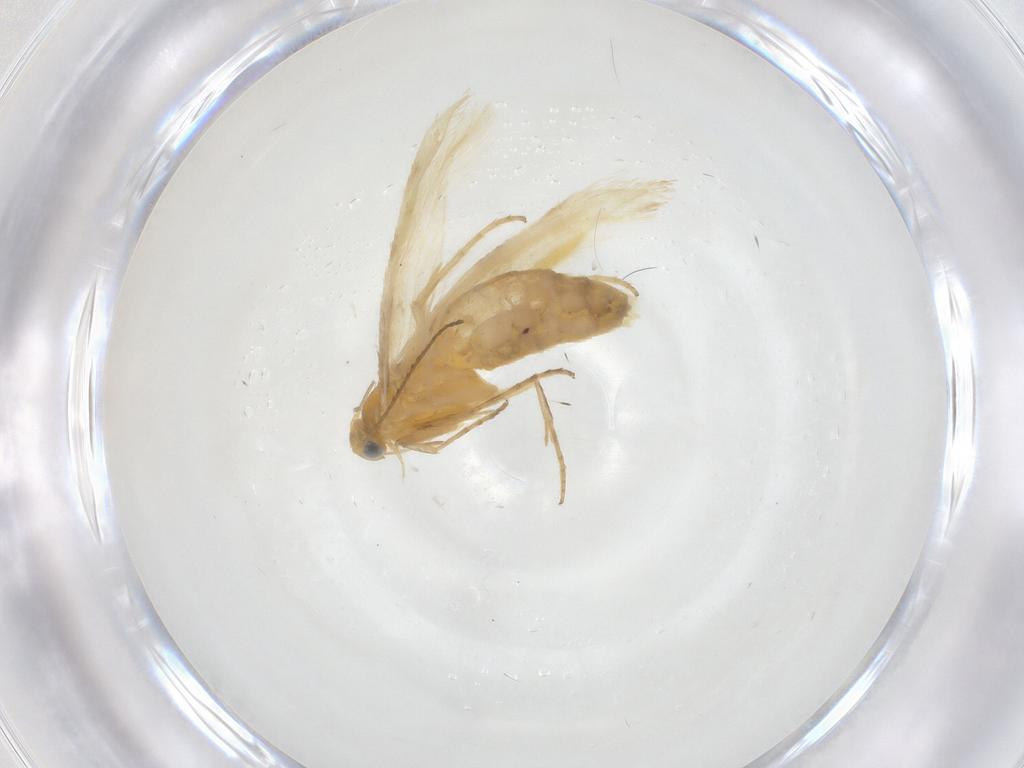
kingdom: Animalia
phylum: Arthropoda
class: Insecta
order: Lepidoptera
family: Argyresthiidae
